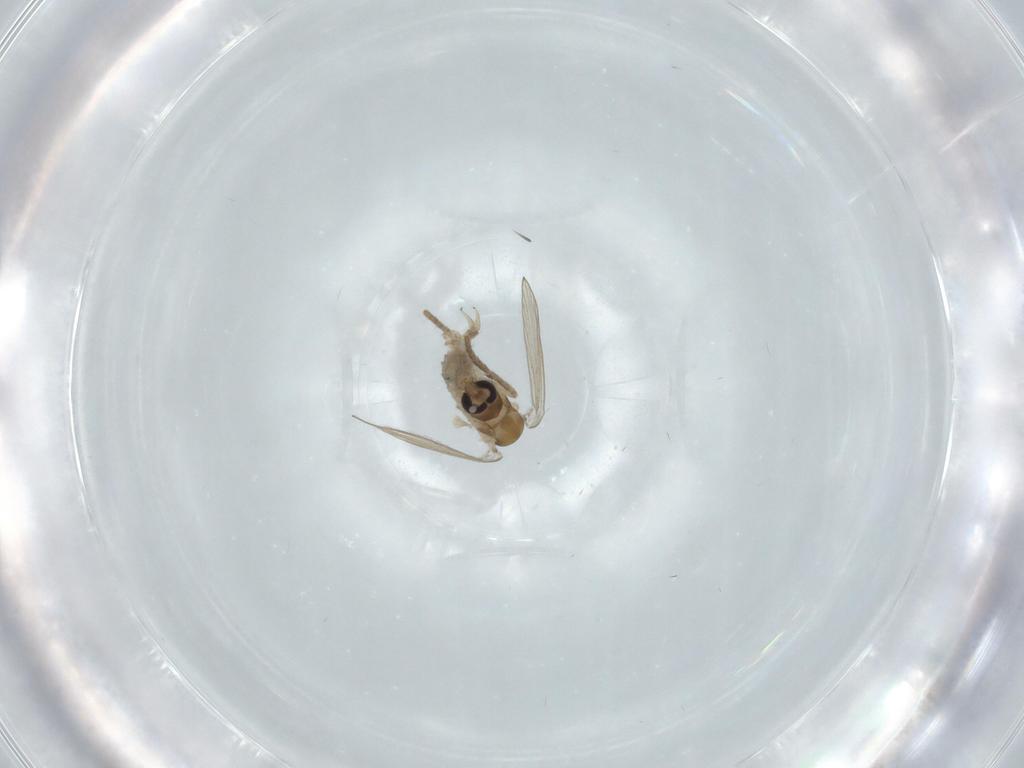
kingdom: Animalia
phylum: Arthropoda
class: Insecta
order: Diptera
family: Limoniidae
